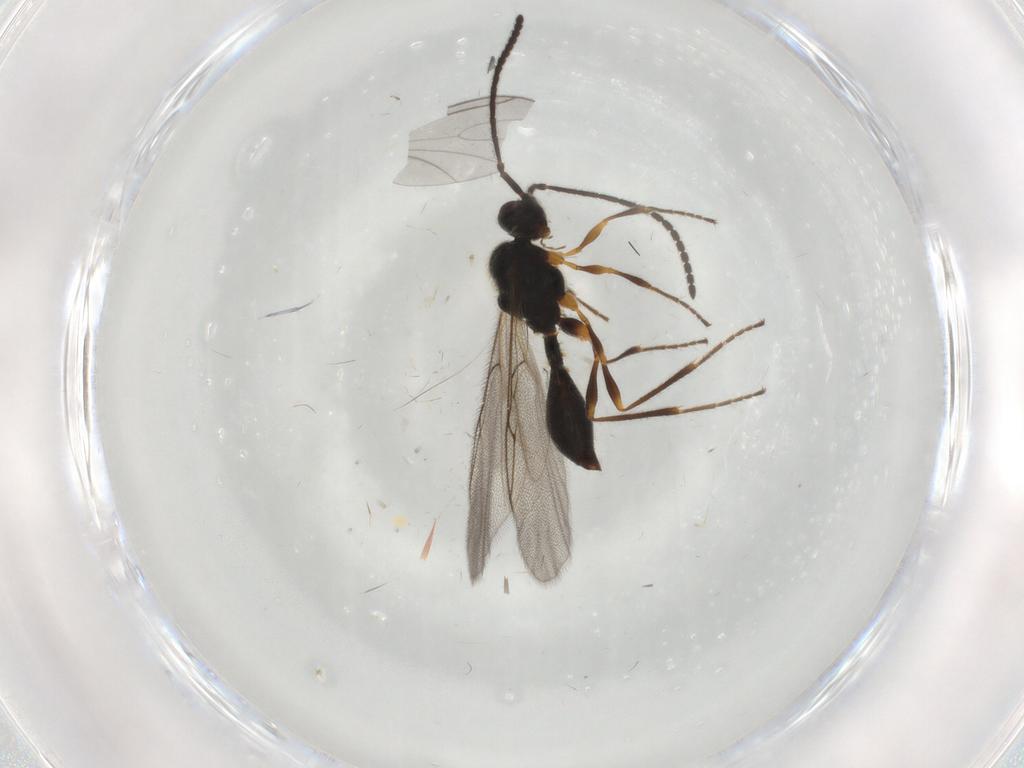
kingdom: Animalia
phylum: Arthropoda
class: Insecta
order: Hymenoptera
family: Diapriidae
